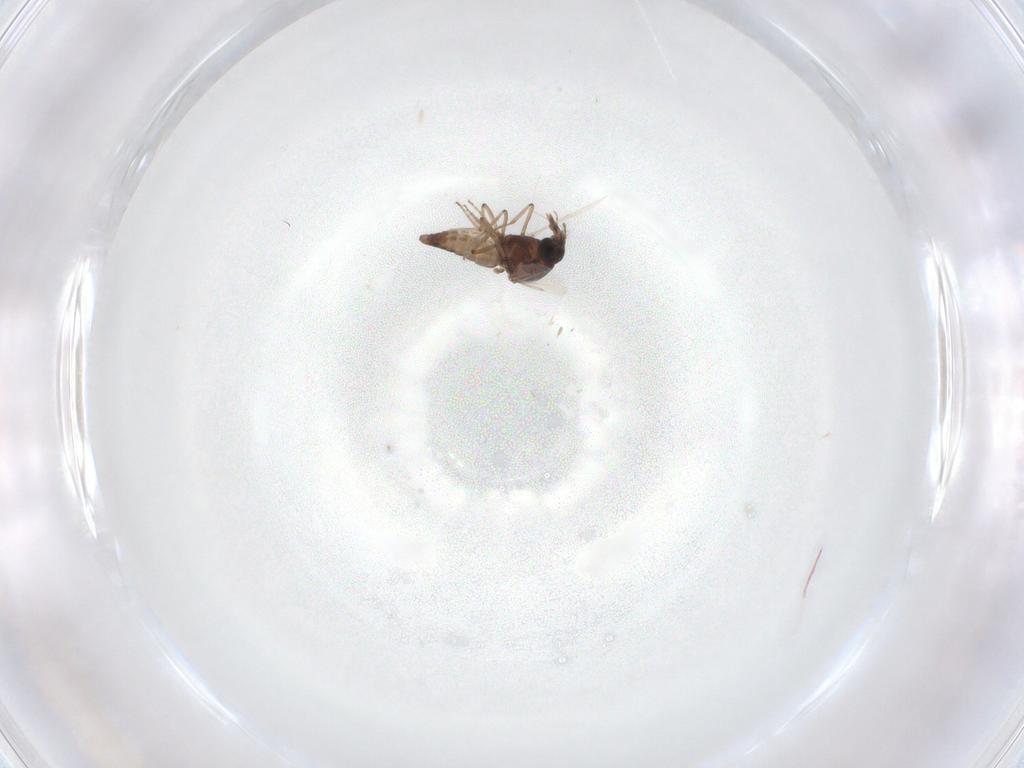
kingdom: Animalia
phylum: Arthropoda
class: Insecta
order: Diptera
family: Ceratopogonidae
